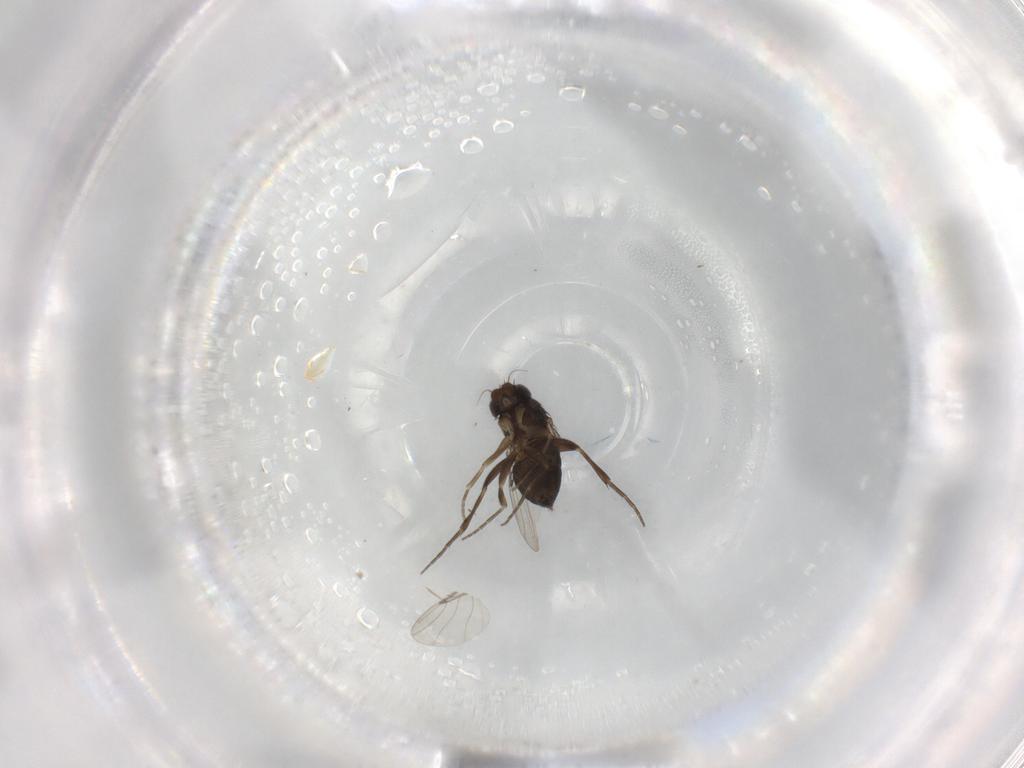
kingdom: Animalia
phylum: Arthropoda
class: Insecta
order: Diptera
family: Phoridae
